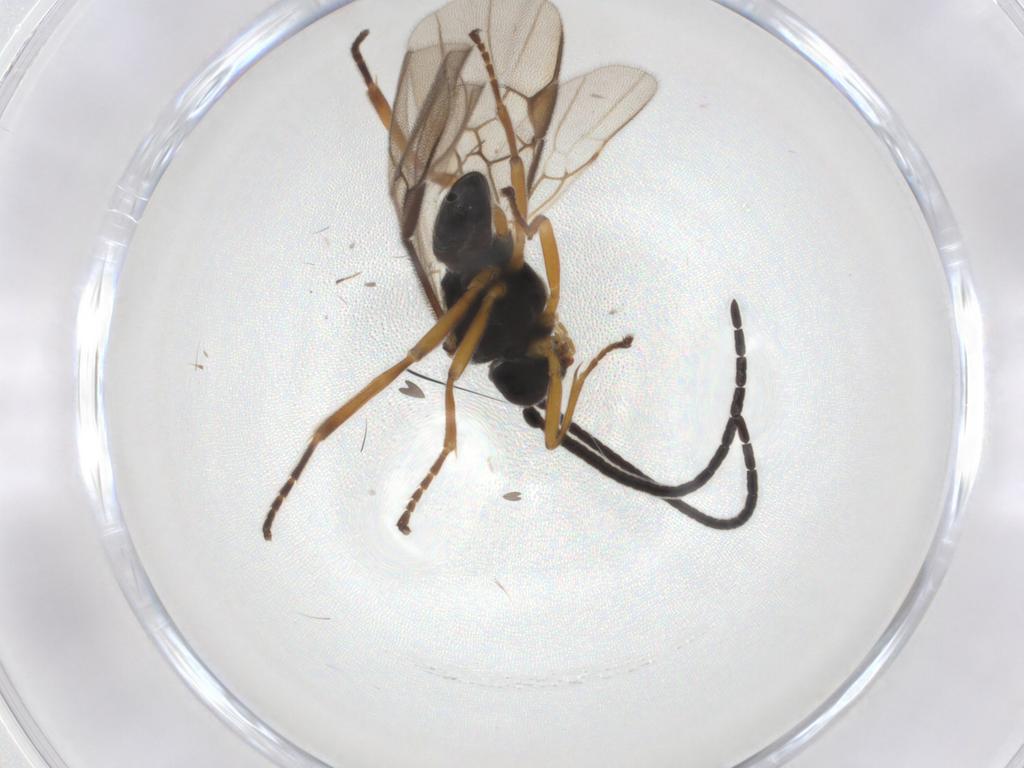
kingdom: Animalia
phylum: Arthropoda
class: Insecta
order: Hymenoptera
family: Braconidae
